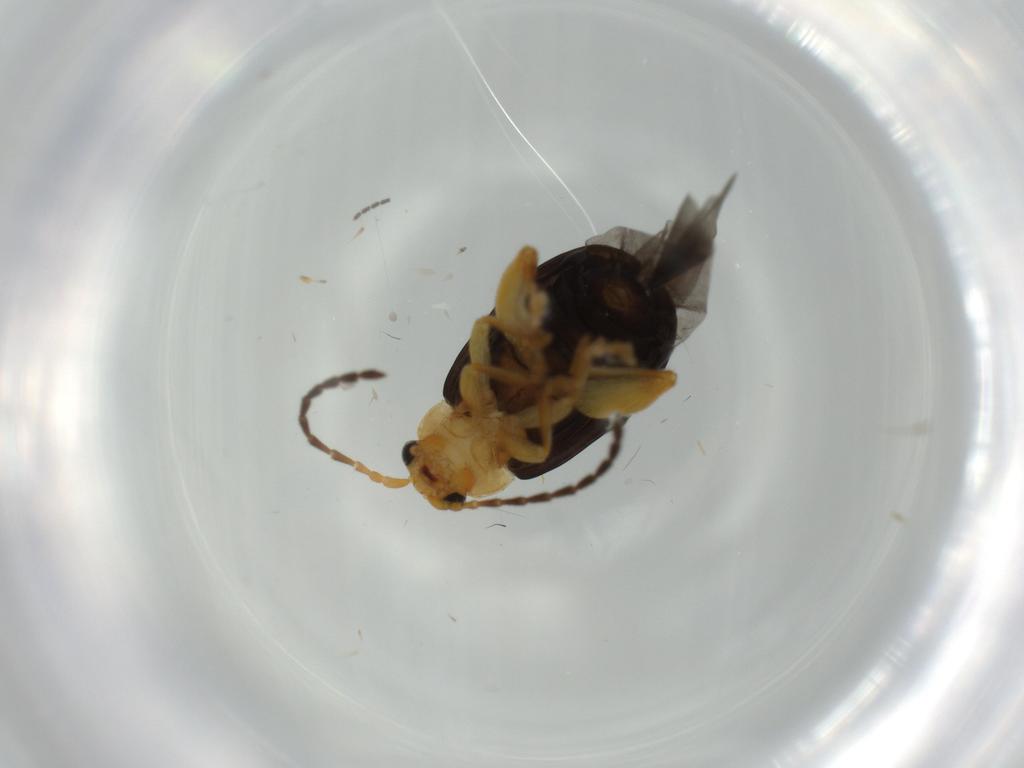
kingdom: Animalia
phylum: Arthropoda
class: Insecta
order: Coleoptera
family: Chrysomelidae
